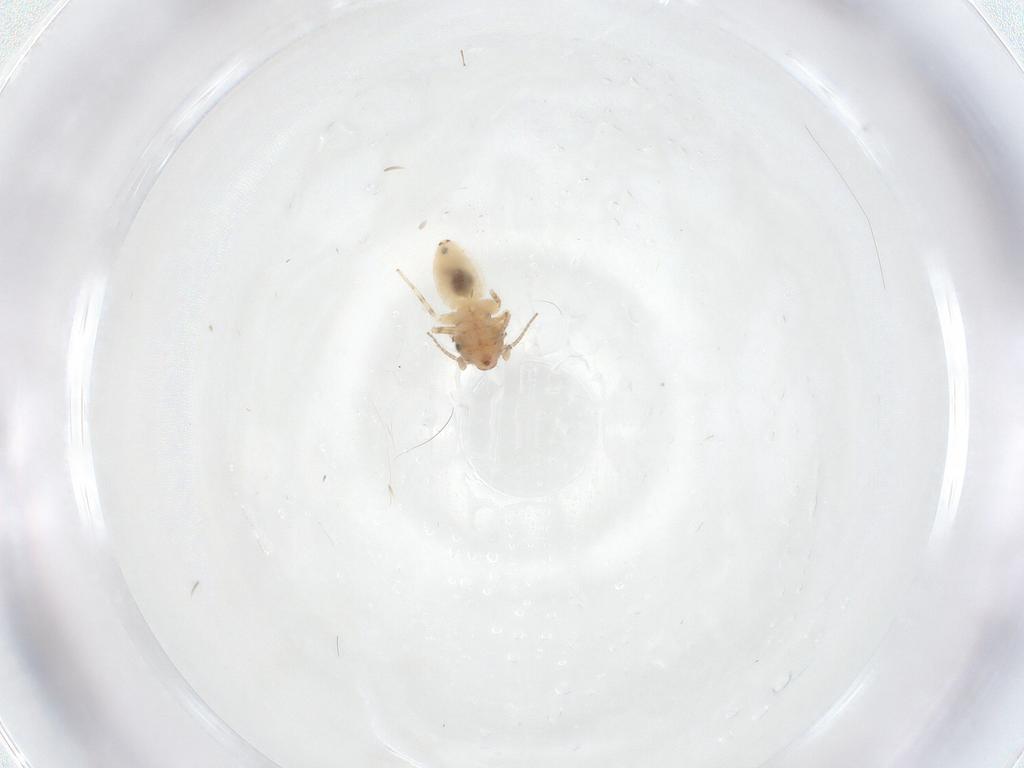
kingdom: Animalia
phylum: Arthropoda
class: Insecta
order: Psocodea
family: Lepidopsocidae
